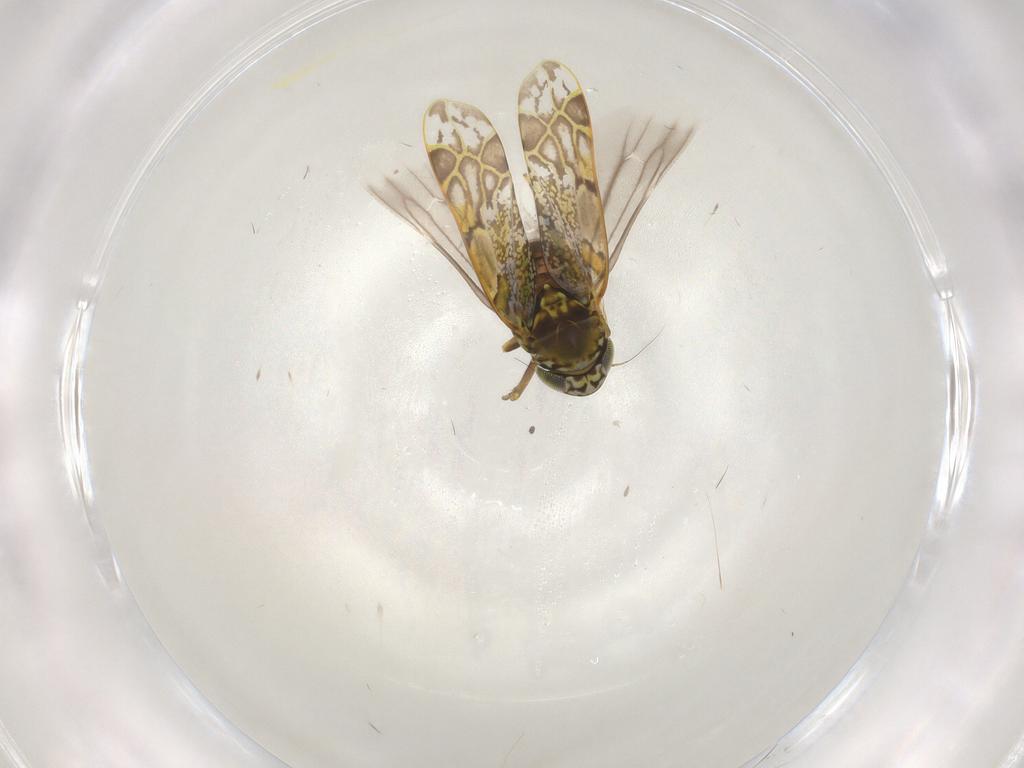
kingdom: Animalia
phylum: Arthropoda
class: Insecta
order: Hemiptera
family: Cicadellidae
